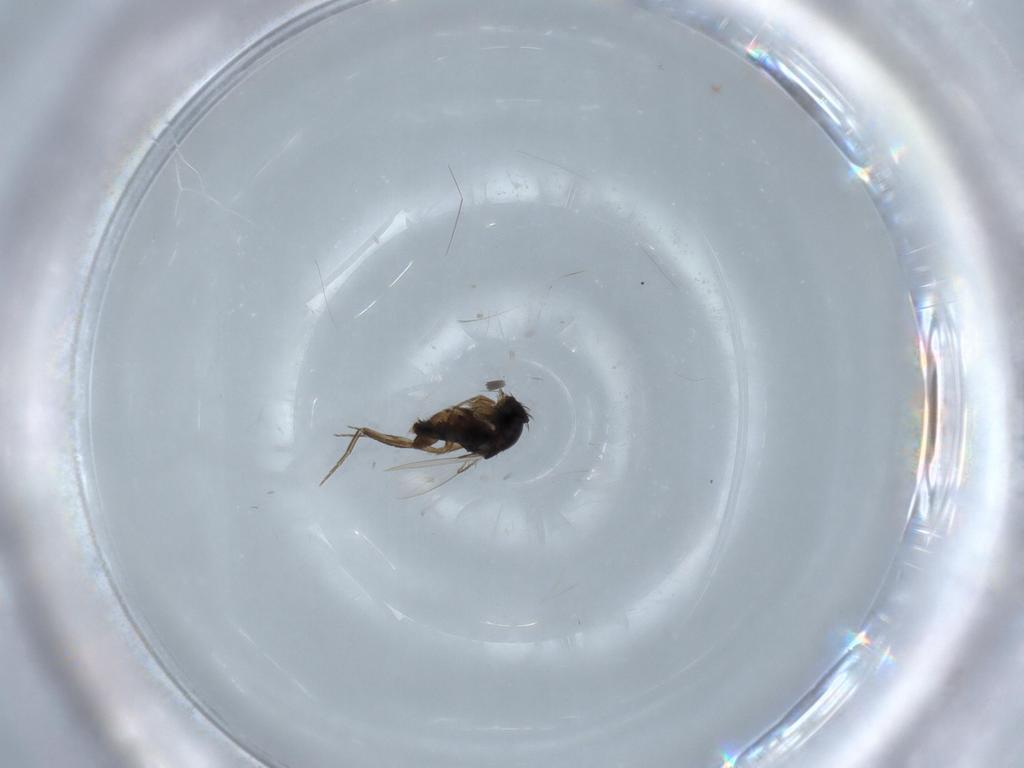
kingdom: Animalia
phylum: Arthropoda
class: Insecta
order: Diptera
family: Phoridae
